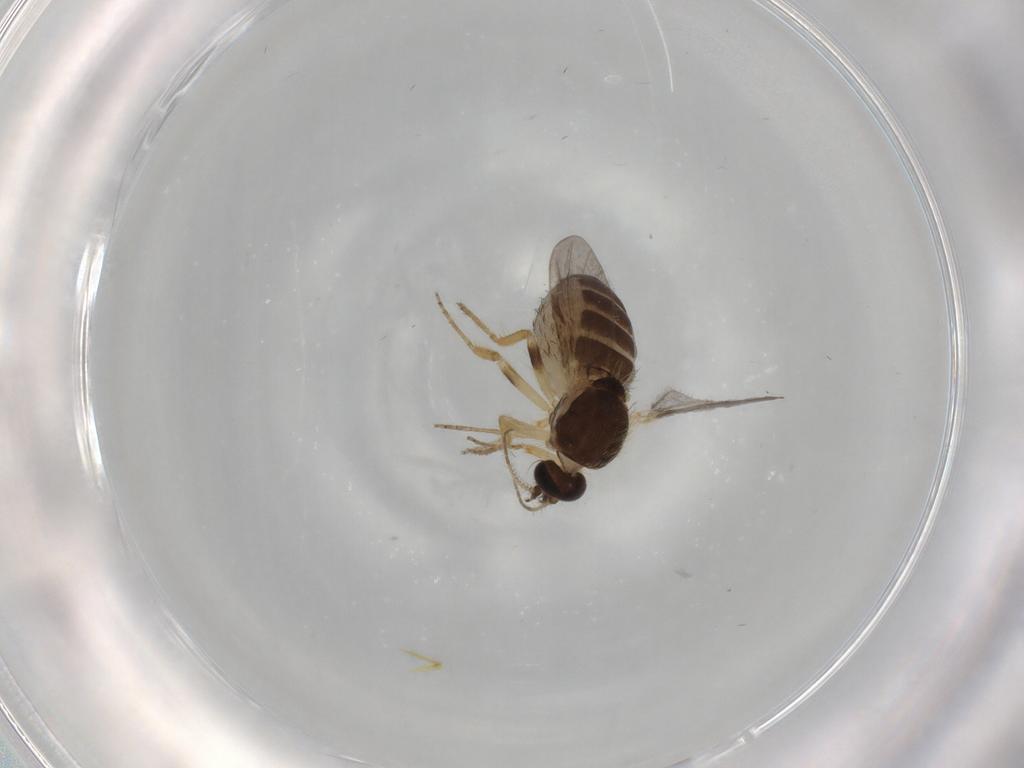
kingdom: Animalia
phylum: Arthropoda
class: Insecta
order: Diptera
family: Ceratopogonidae
